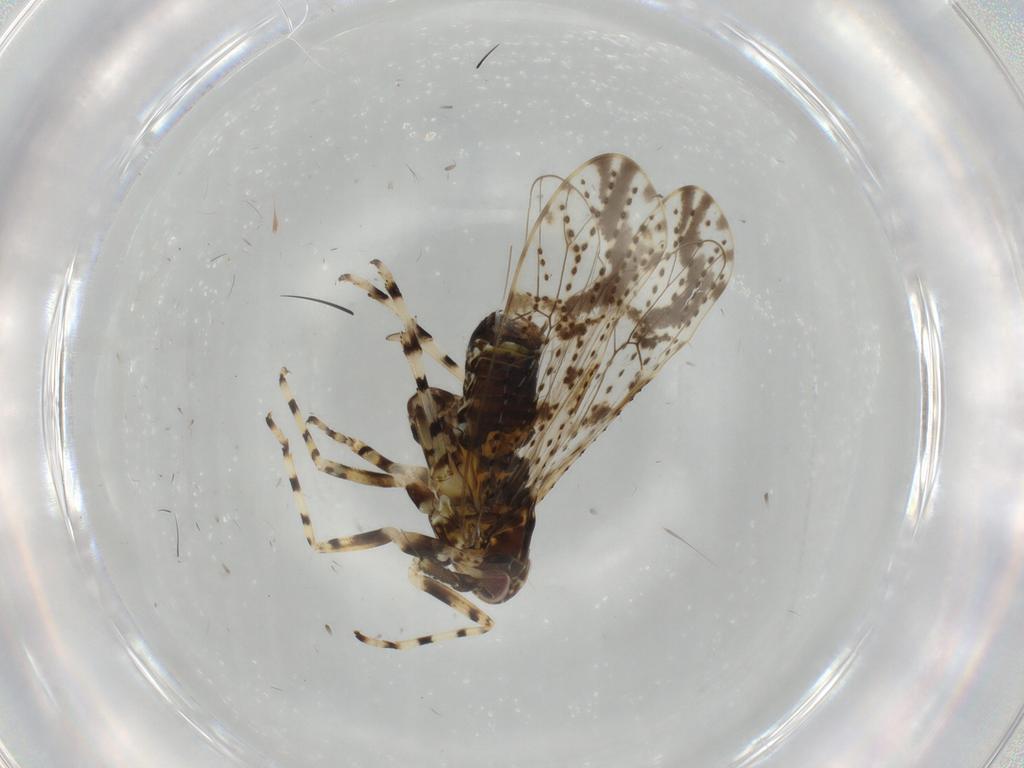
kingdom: Animalia
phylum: Arthropoda
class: Insecta
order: Hemiptera
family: Delphacidae
